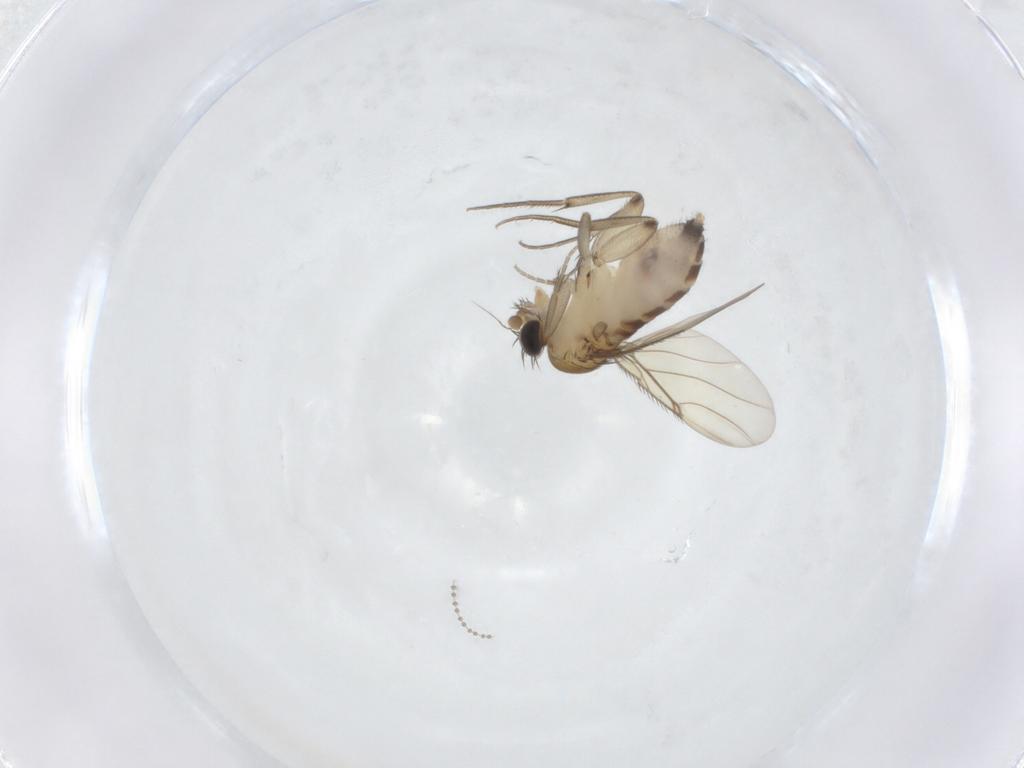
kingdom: Animalia
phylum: Arthropoda
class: Insecta
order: Diptera
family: Phoridae
